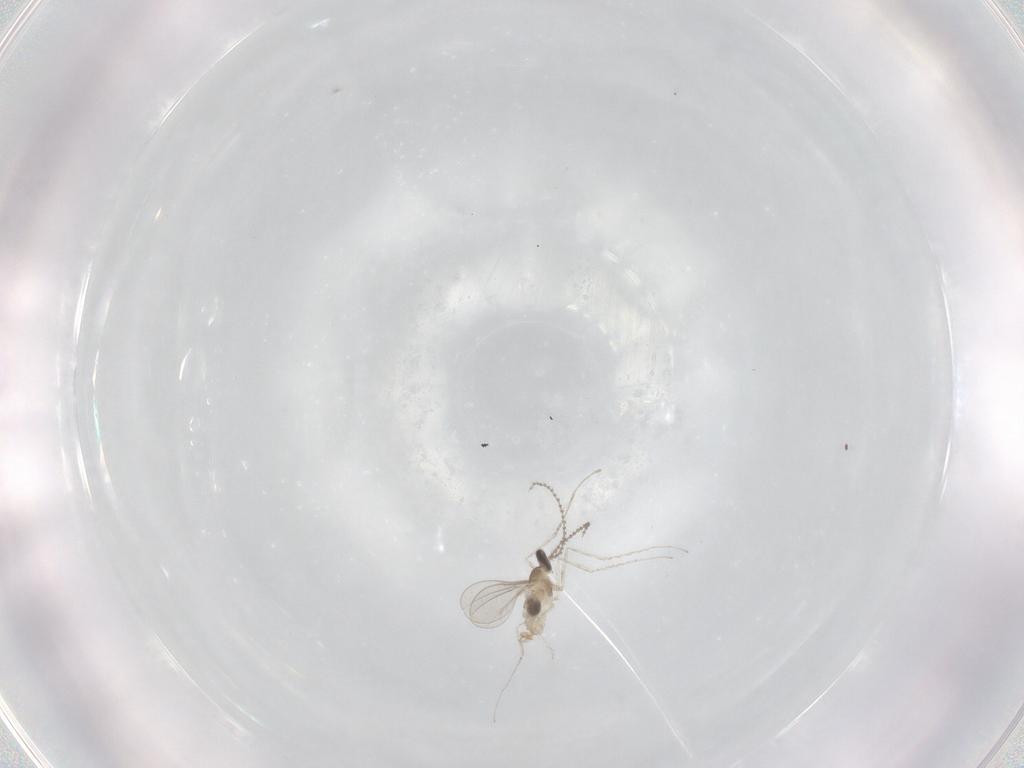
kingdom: Animalia
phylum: Arthropoda
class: Insecta
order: Diptera
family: Cecidomyiidae
